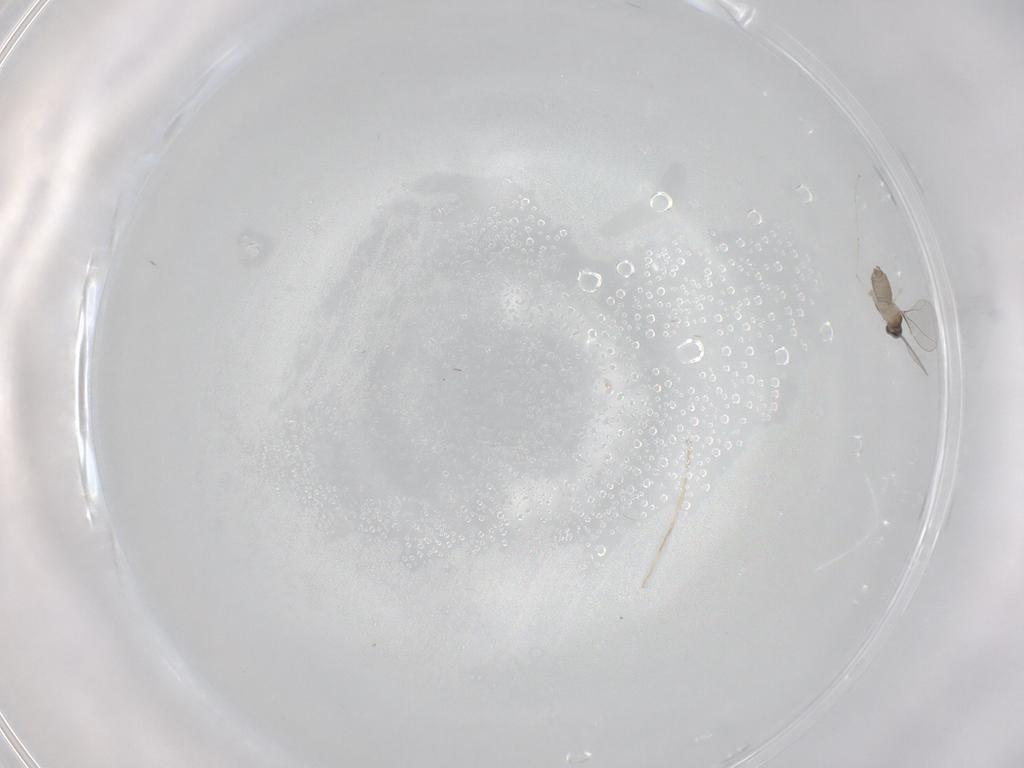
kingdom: Animalia
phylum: Arthropoda
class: Insecta
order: Diptera
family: Cecidomyiidae
